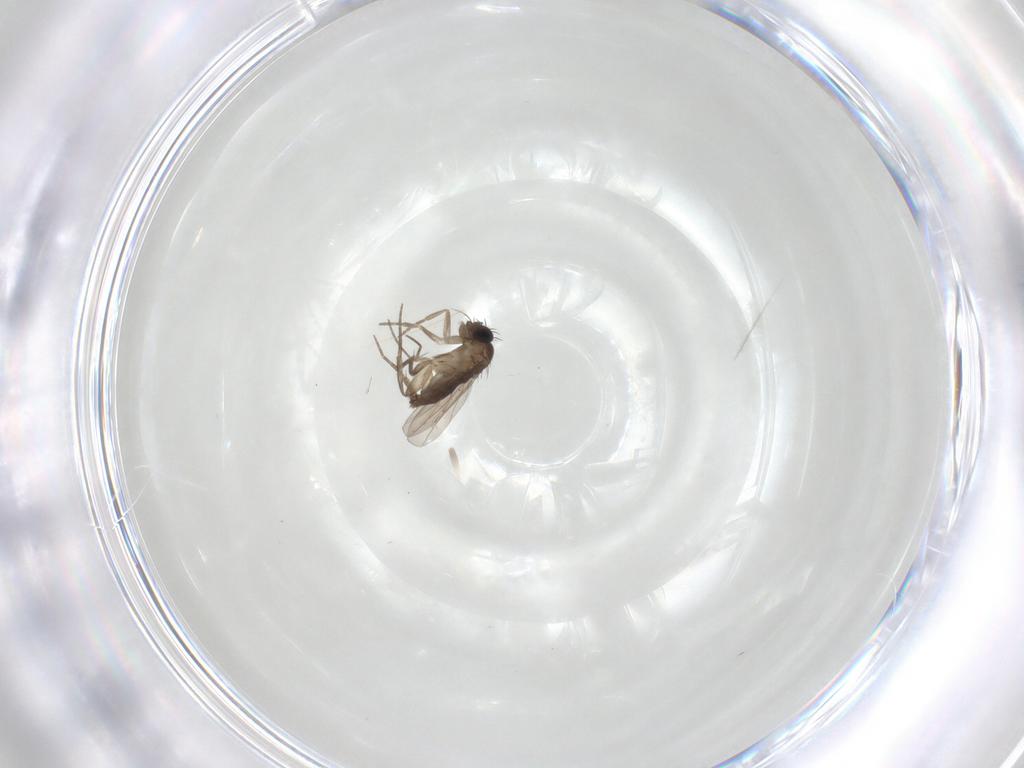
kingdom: Animalia
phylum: Arthropoda
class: Insecta
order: Diptera
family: Phoridae
